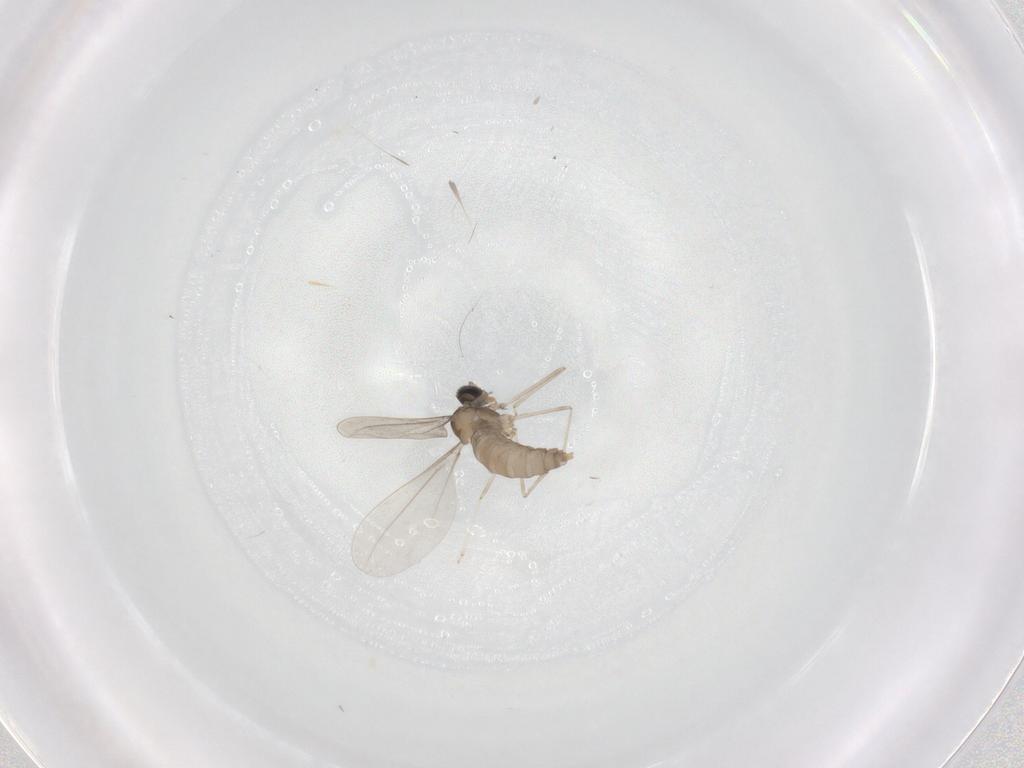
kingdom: Animalia
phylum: Arthropoda
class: Insecta
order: Diptera
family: Cecidomyiidae
